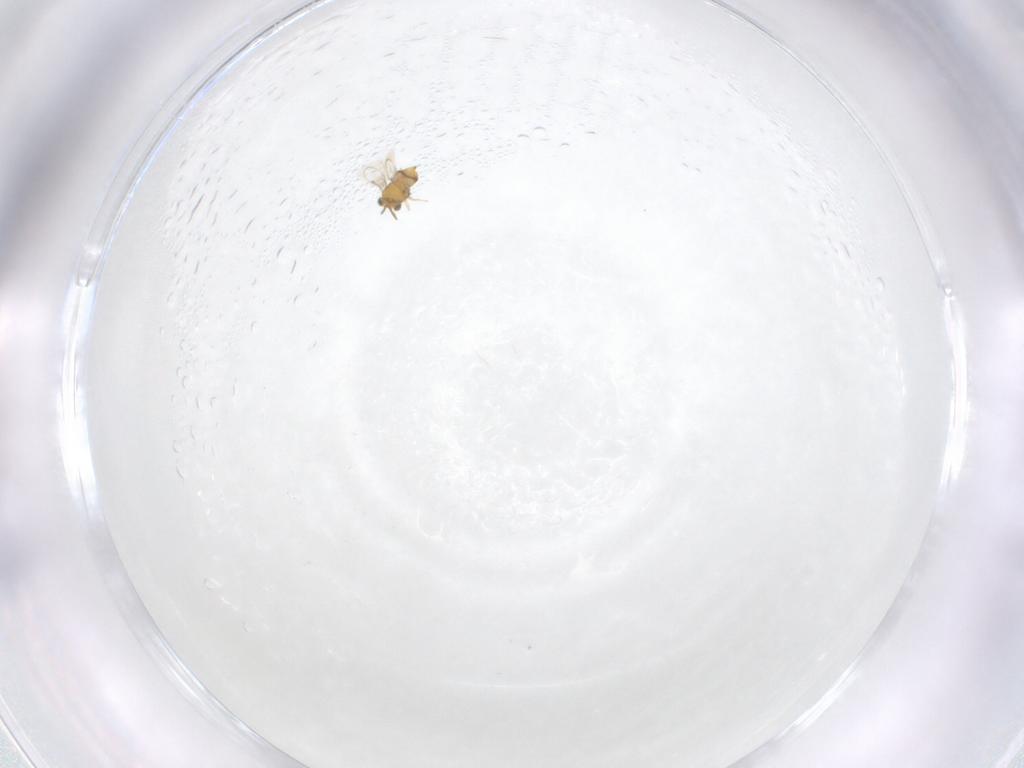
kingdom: Animalia
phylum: Arthropoda
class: Insecta
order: Hymenoptera
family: Aphelinidae
